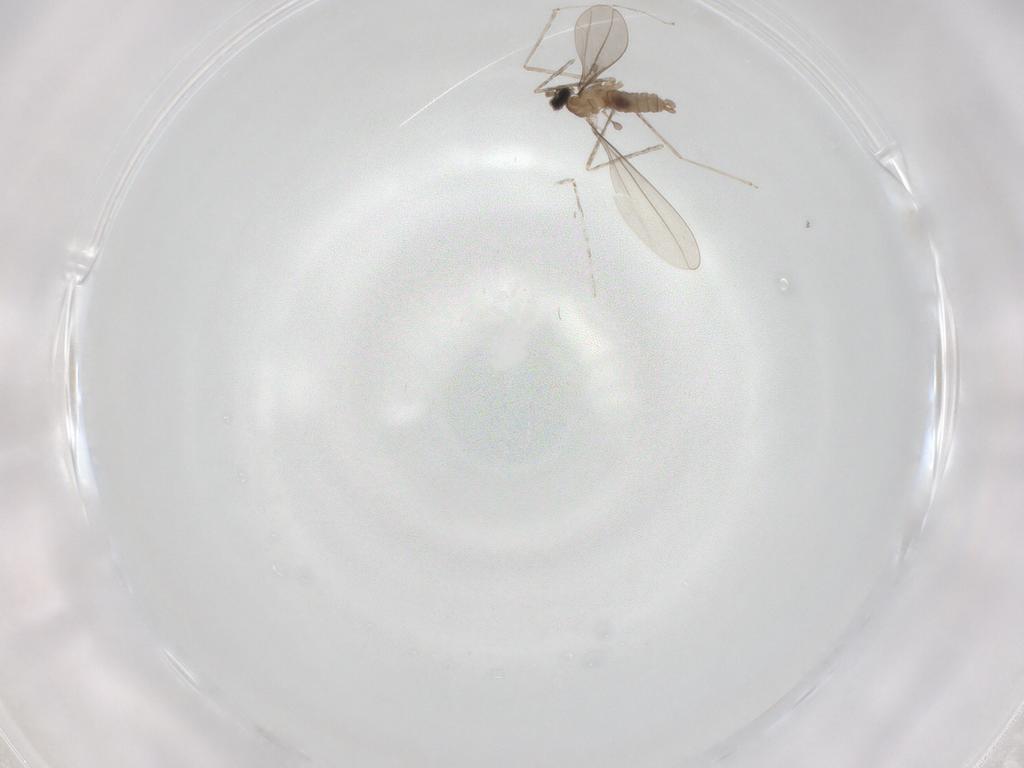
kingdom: Animalia
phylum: Arthropoda
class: Insecta
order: Diptera
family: Cecidomyiidae
